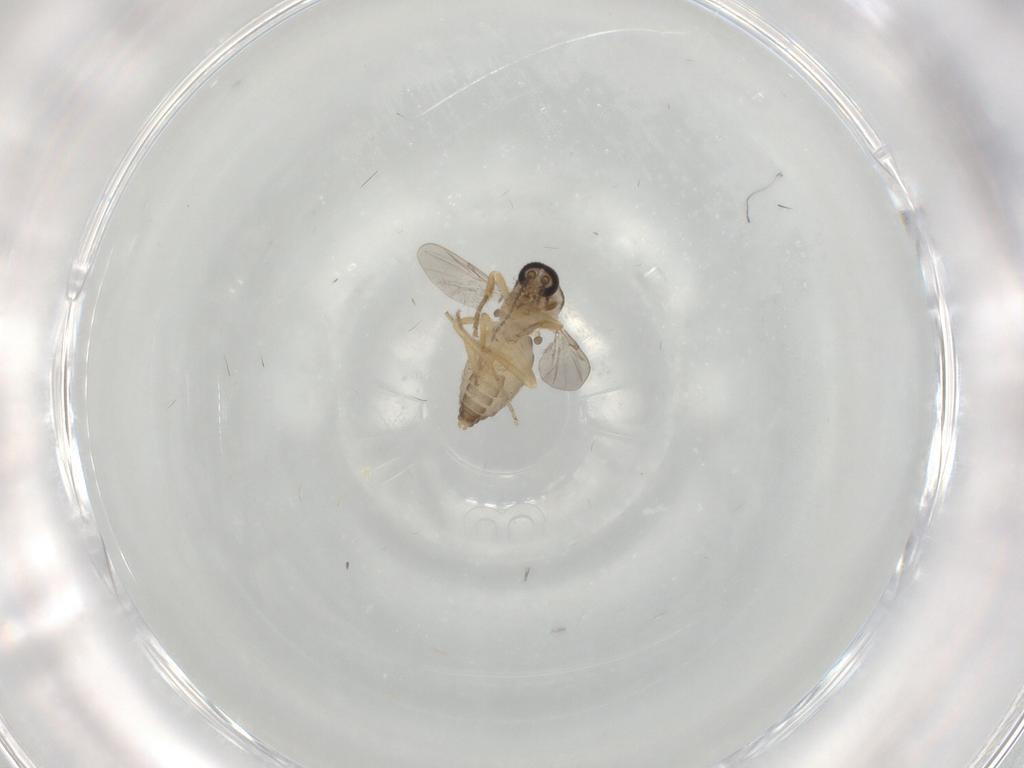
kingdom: Animalia
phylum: Arthropoda
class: Insecta
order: Diptera
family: Ceratopogonidae
